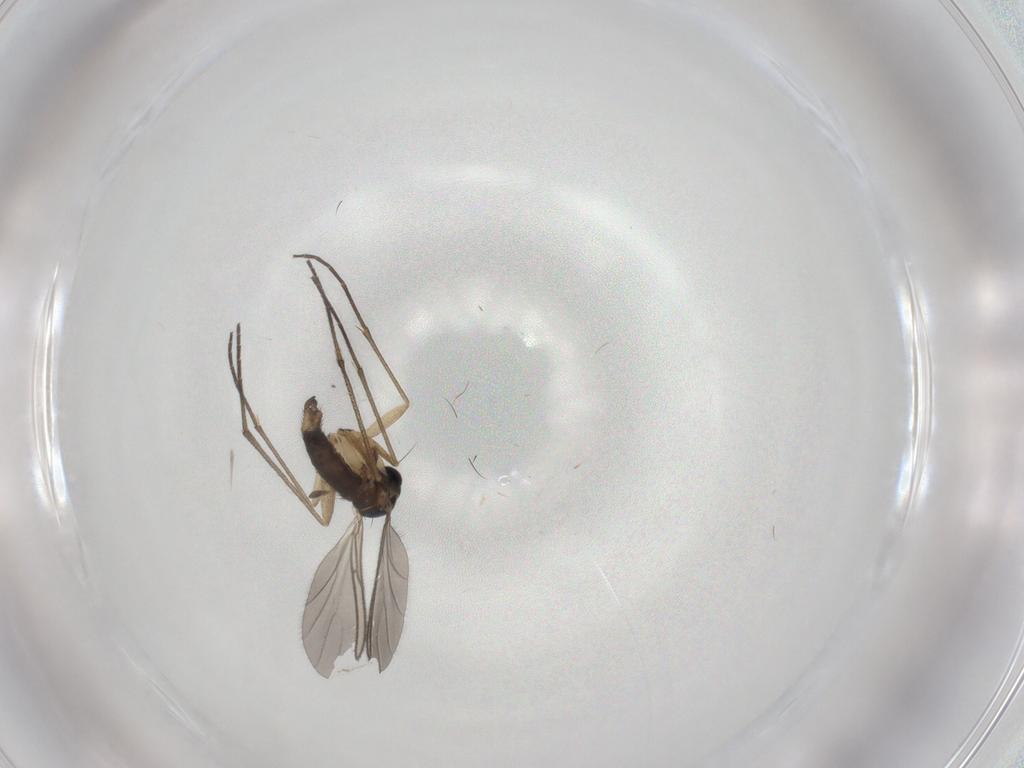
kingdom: Animalia
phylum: Arthropoda
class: Insecta
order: Diptera
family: Sciaridae
